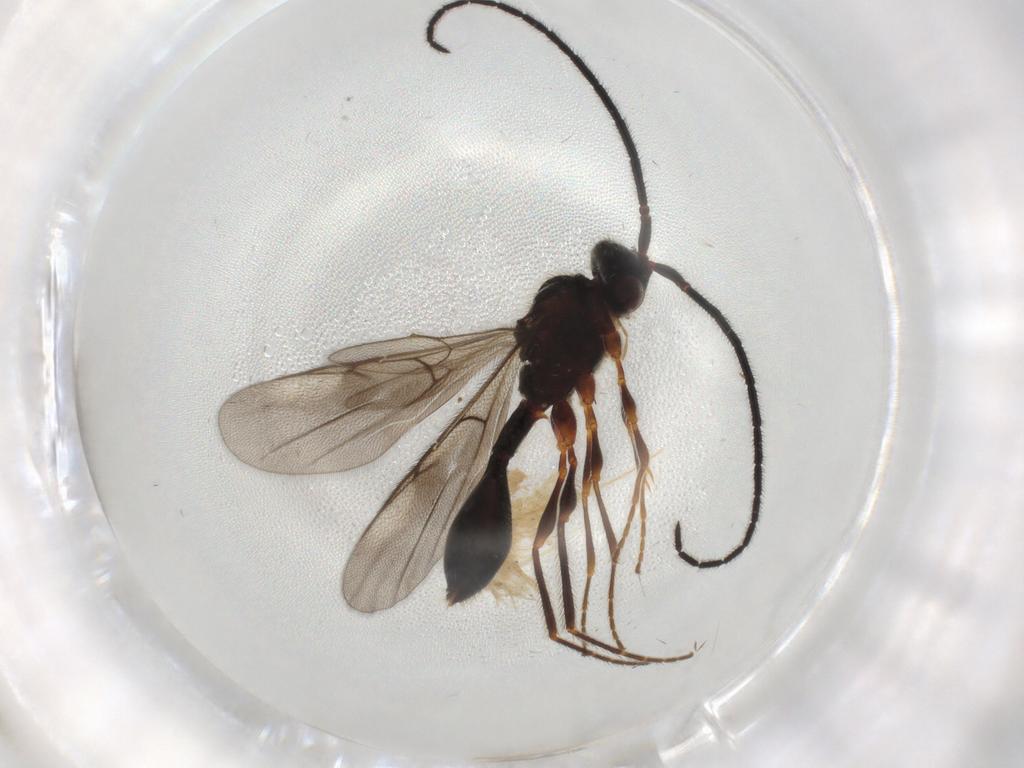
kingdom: Animalia
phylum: Arthropoda
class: Insecta
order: Hymenoptera
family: Diapriidae
